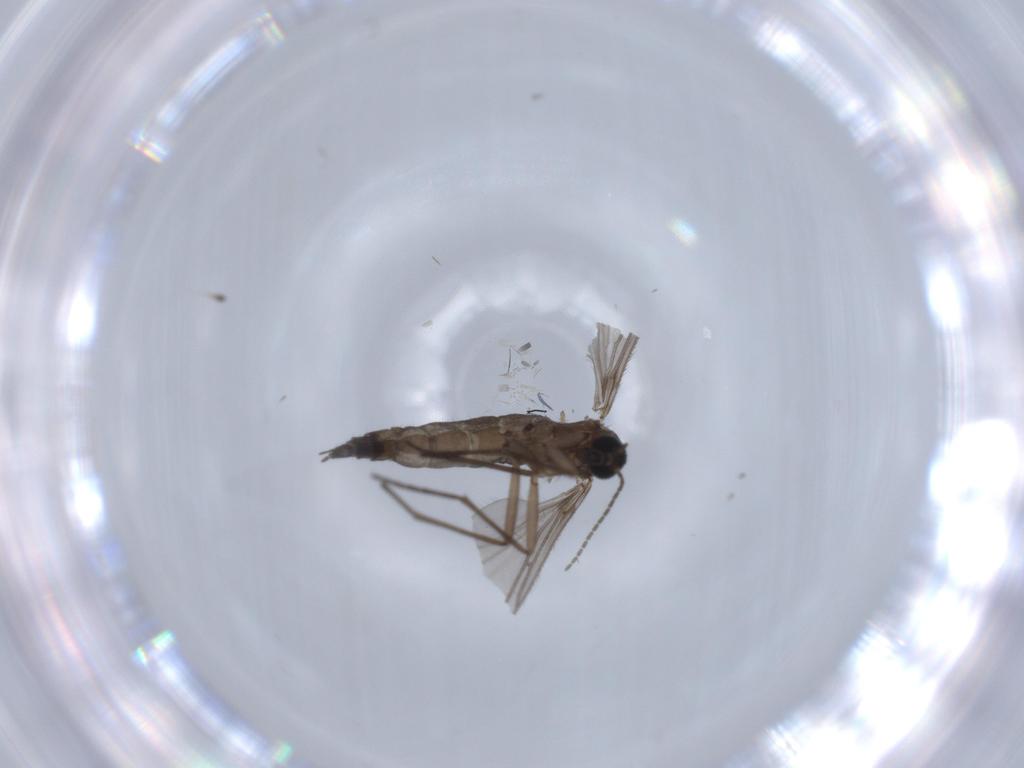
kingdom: Animalia
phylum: Arthropoda
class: Insecta
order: Diptera
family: Sciaridae
